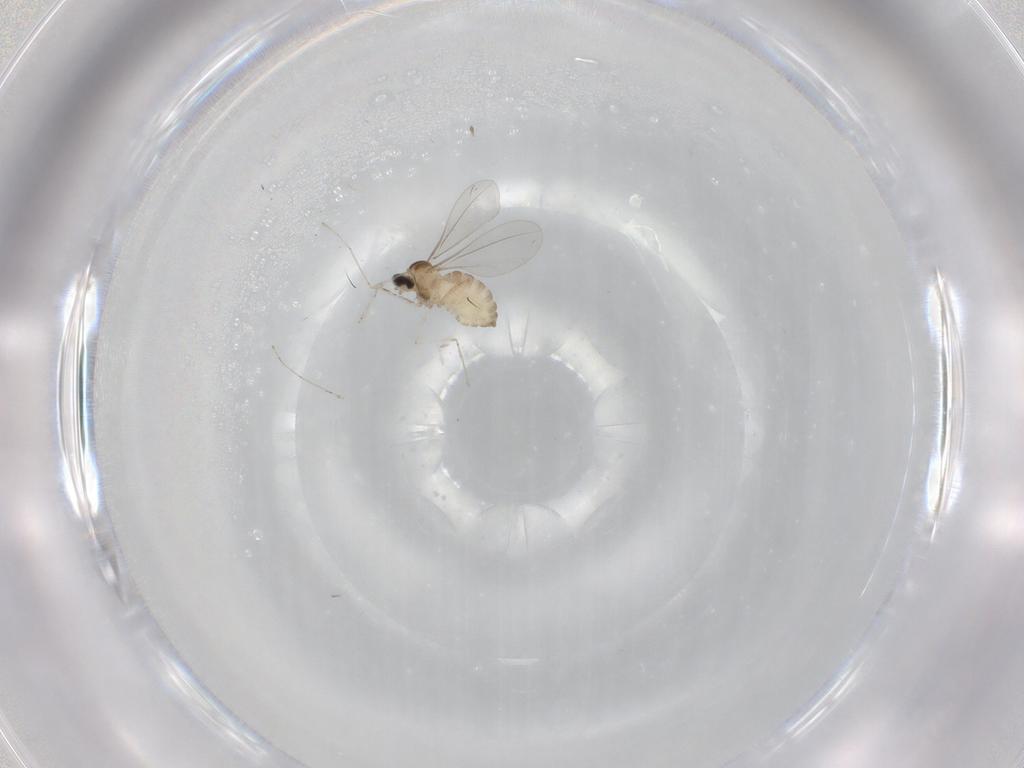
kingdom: Animalia
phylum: Arthropoda
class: Insecta
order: Diptera
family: Cecidomyiidae
